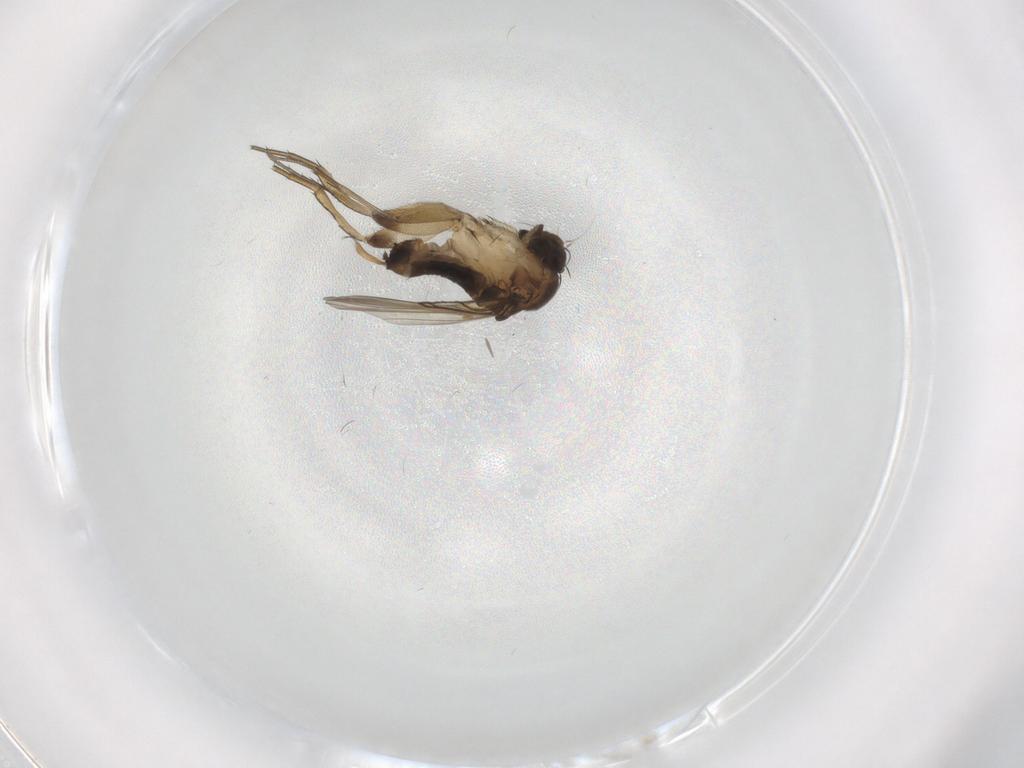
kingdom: Animalia
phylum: Arthropoda
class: Insecta
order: Diptera
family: Phoridae
